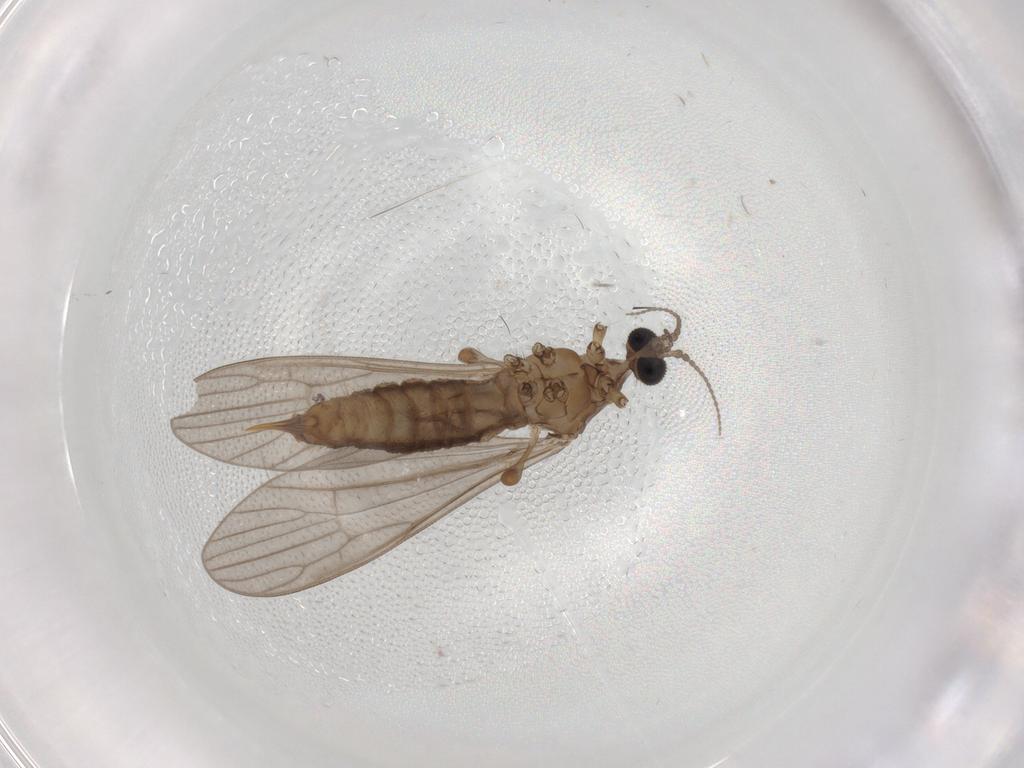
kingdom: Animalia
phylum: Arthropoda
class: Insecta
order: Diptera
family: Limoniidae
